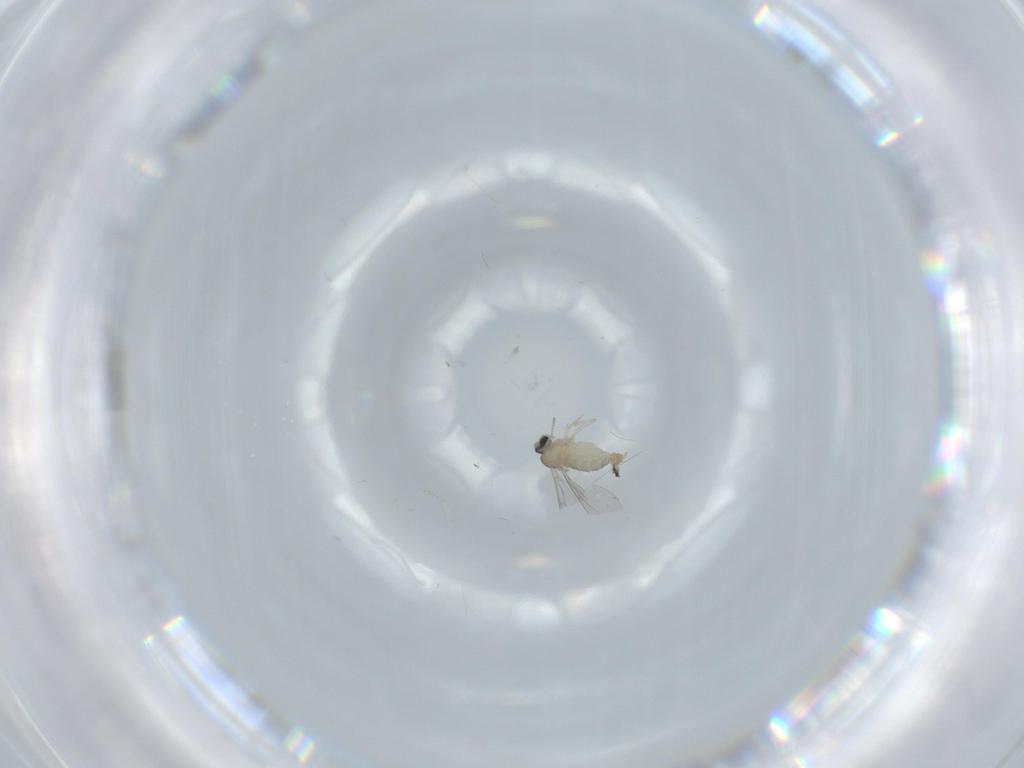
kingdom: Animalia
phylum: Arthropoda
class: Insecta
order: Diptera
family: Cecidomyiidae
